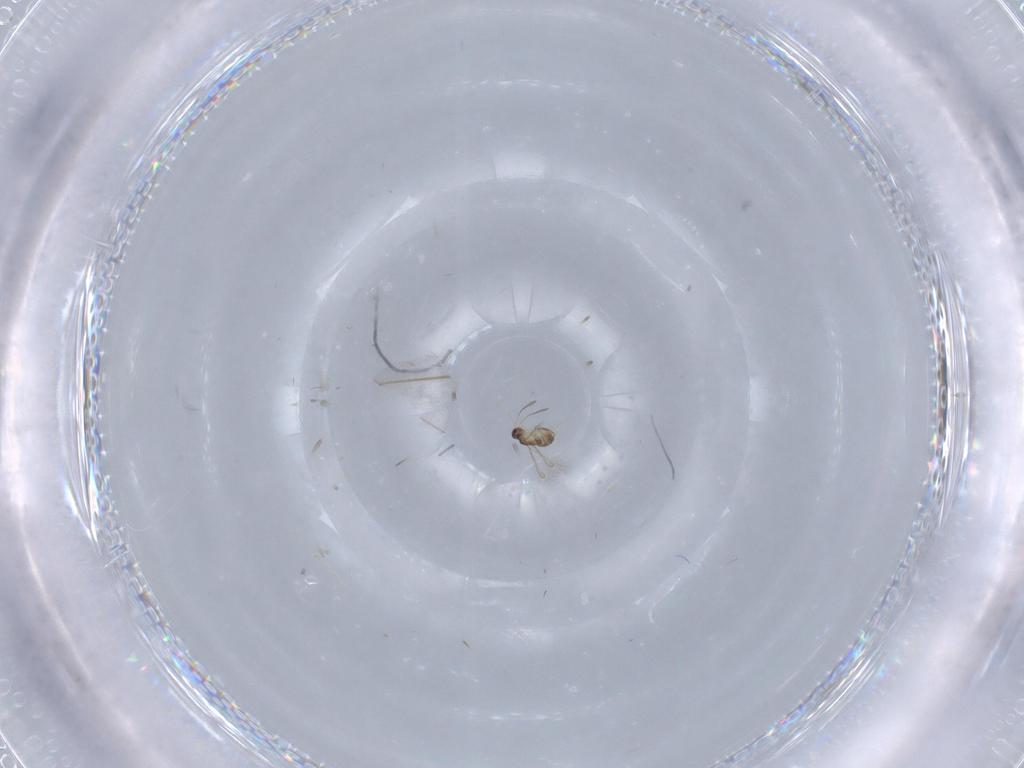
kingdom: Animalia
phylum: Arthropoda
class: Insecta
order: Hymenoptera
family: Mymaridae
